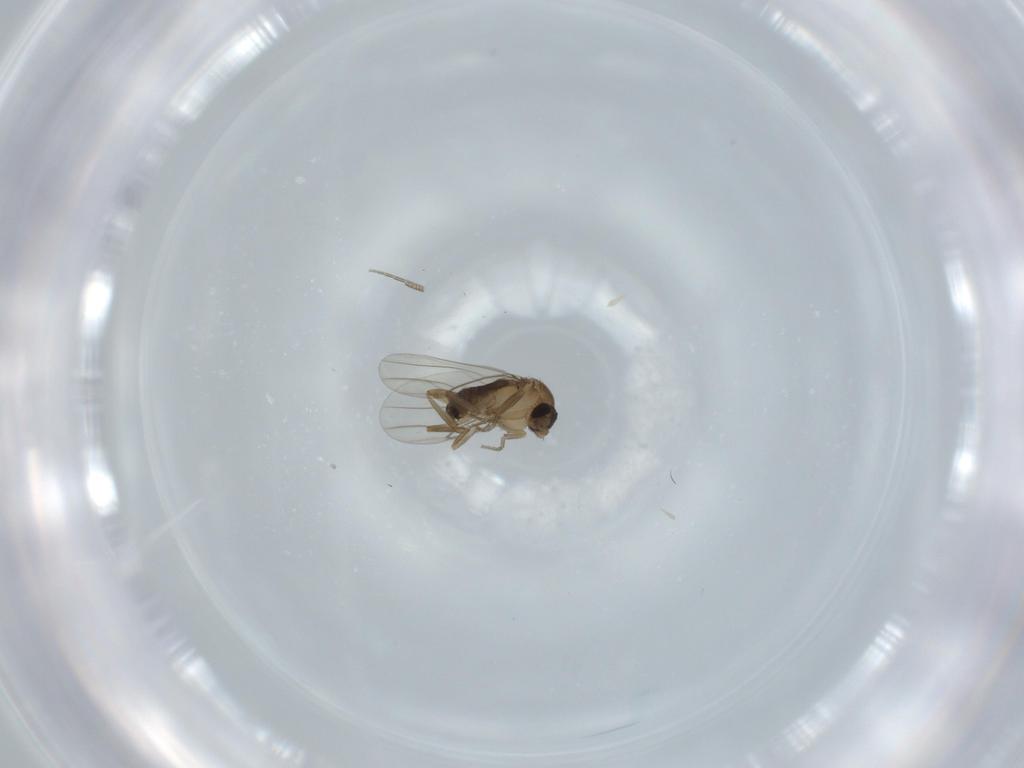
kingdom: Animalia
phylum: Arthropoda
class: Insecta
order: Diptera
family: Phoridae
